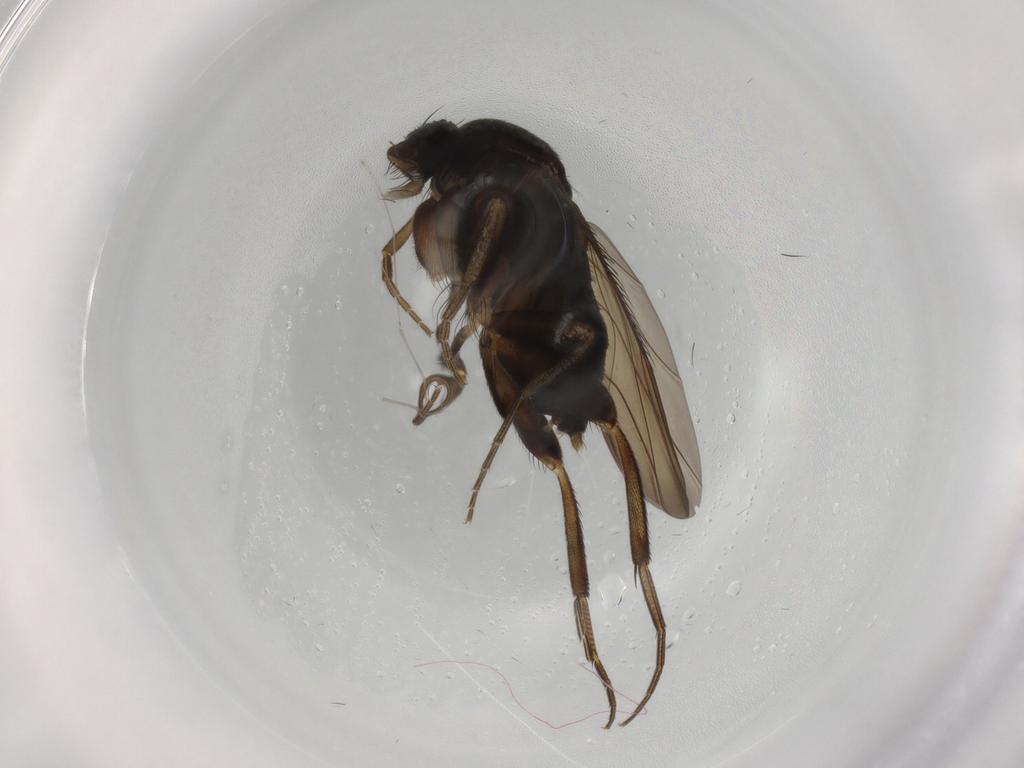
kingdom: Animalia
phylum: Arthropoda
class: Insecta
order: Diptera
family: Phoridae
